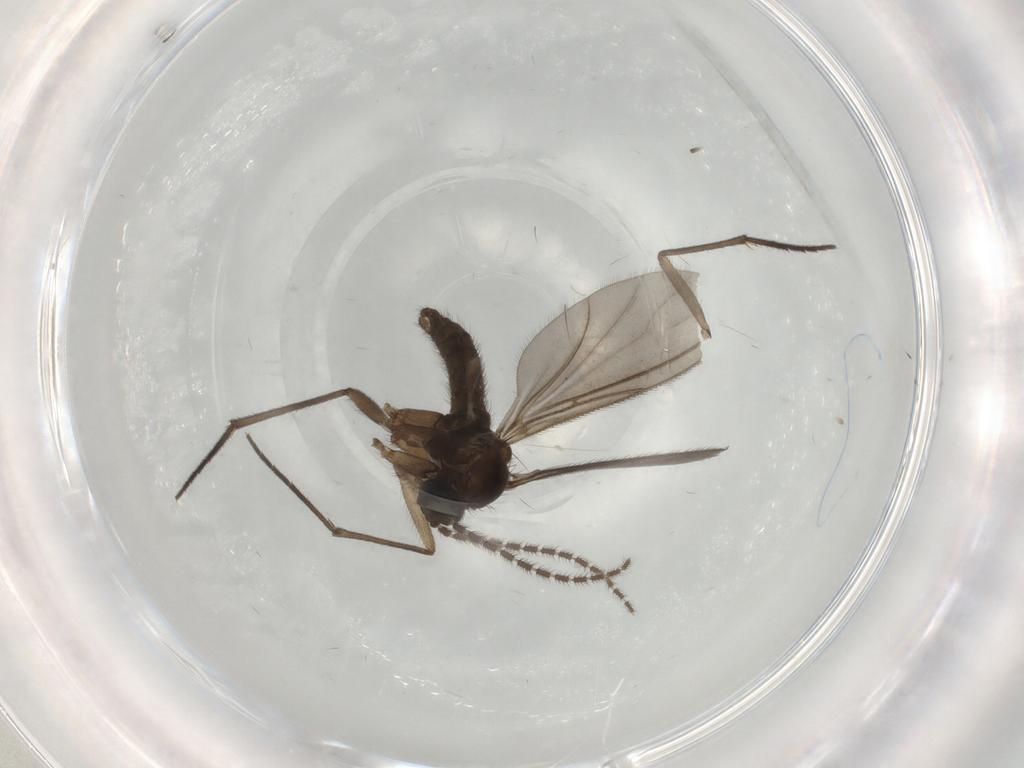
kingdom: Animalia
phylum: Arthropoda
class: Insecta
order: Diptera
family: Sciaridae
